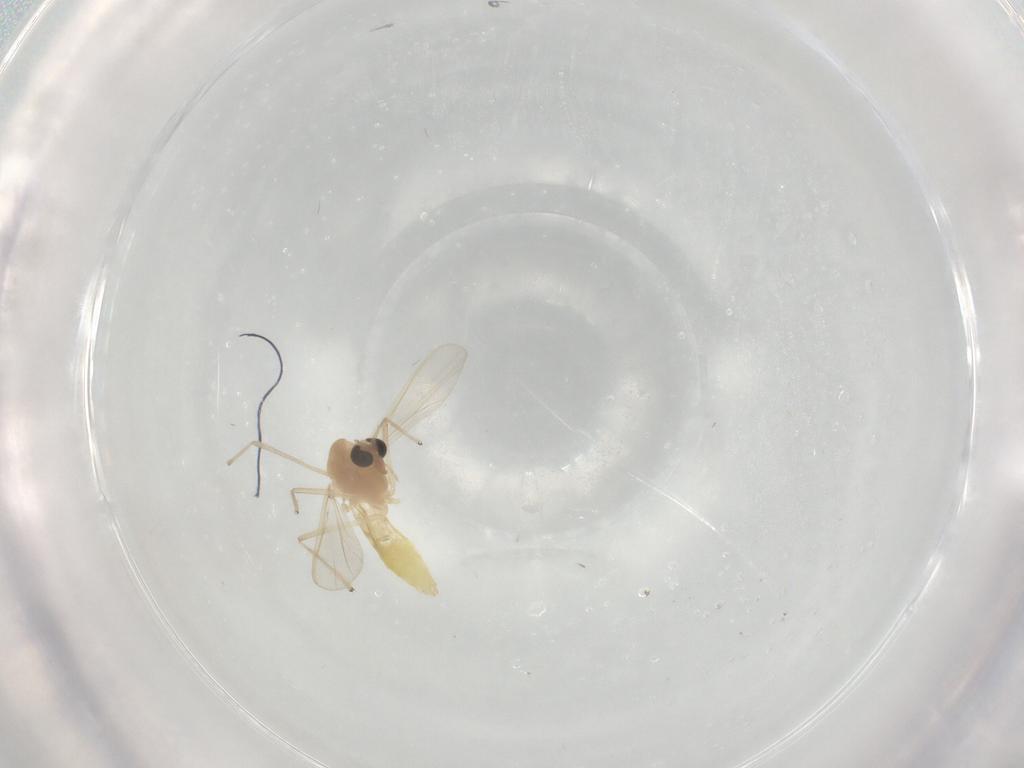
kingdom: Animalia
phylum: Arthropoda
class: Insecta
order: Diptera
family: Chironomidae
